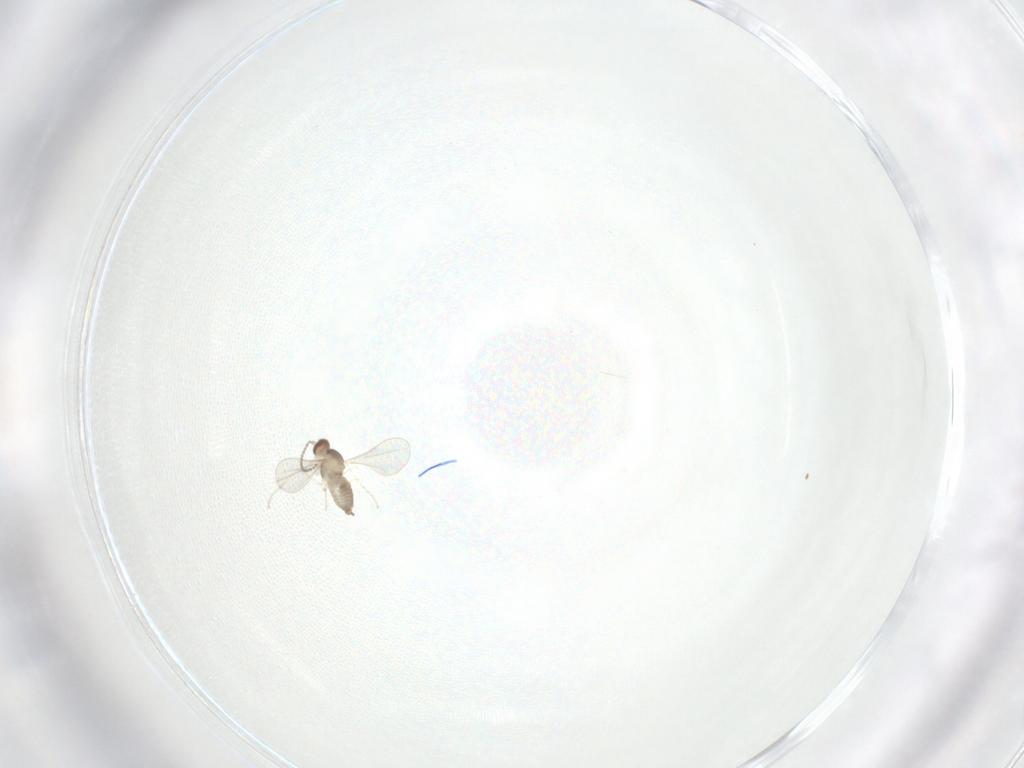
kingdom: Animalia
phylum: Arthropoda
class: Insecta
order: Diptera
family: Cecidomyiidae
